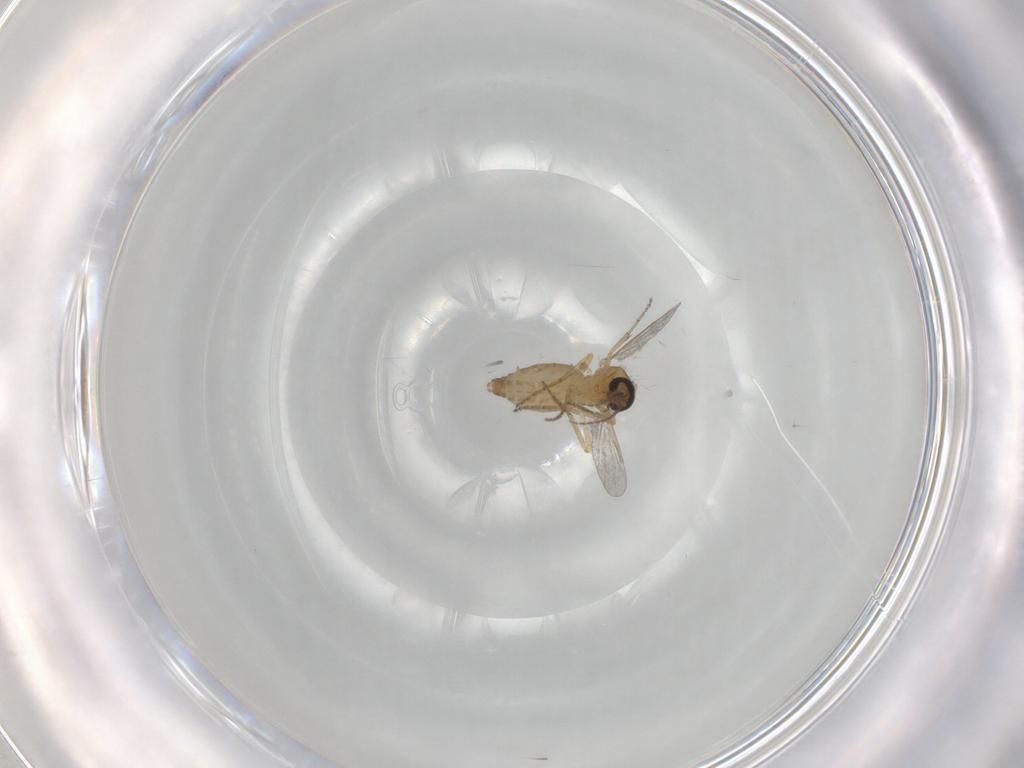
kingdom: Animalia
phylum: Arthropoda
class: Insecta
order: Diptera
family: Ceratopogonidae
